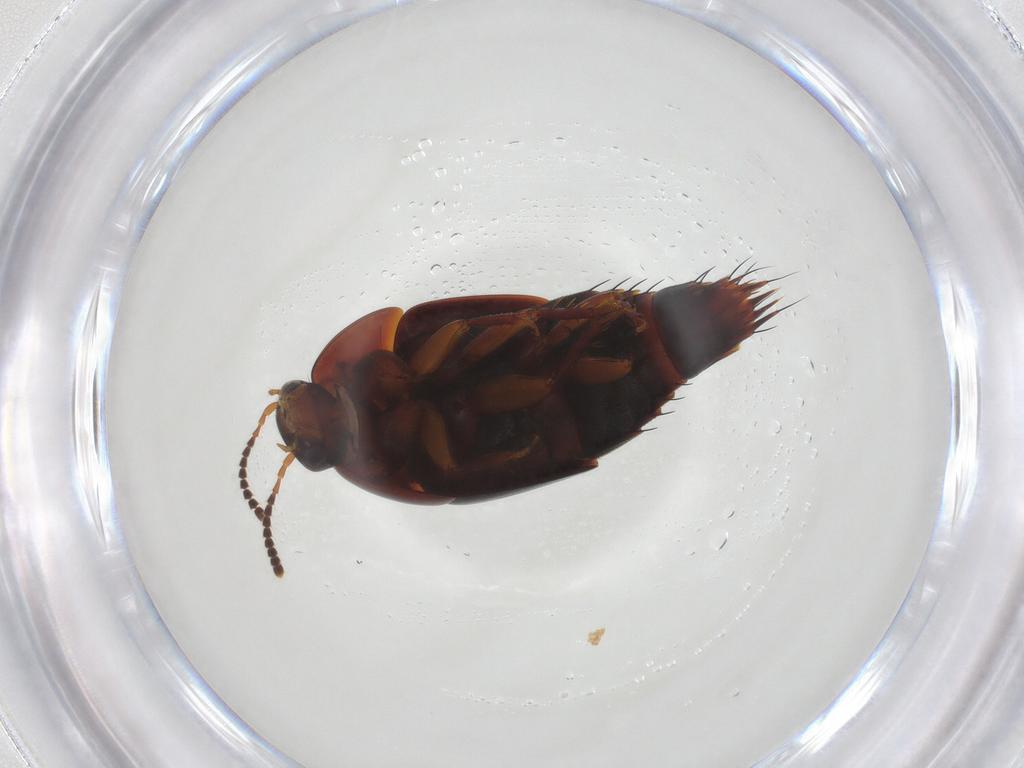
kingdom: Animalia
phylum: Arthropoda
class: Insecta
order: Coleoptera
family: Staphylinidae
